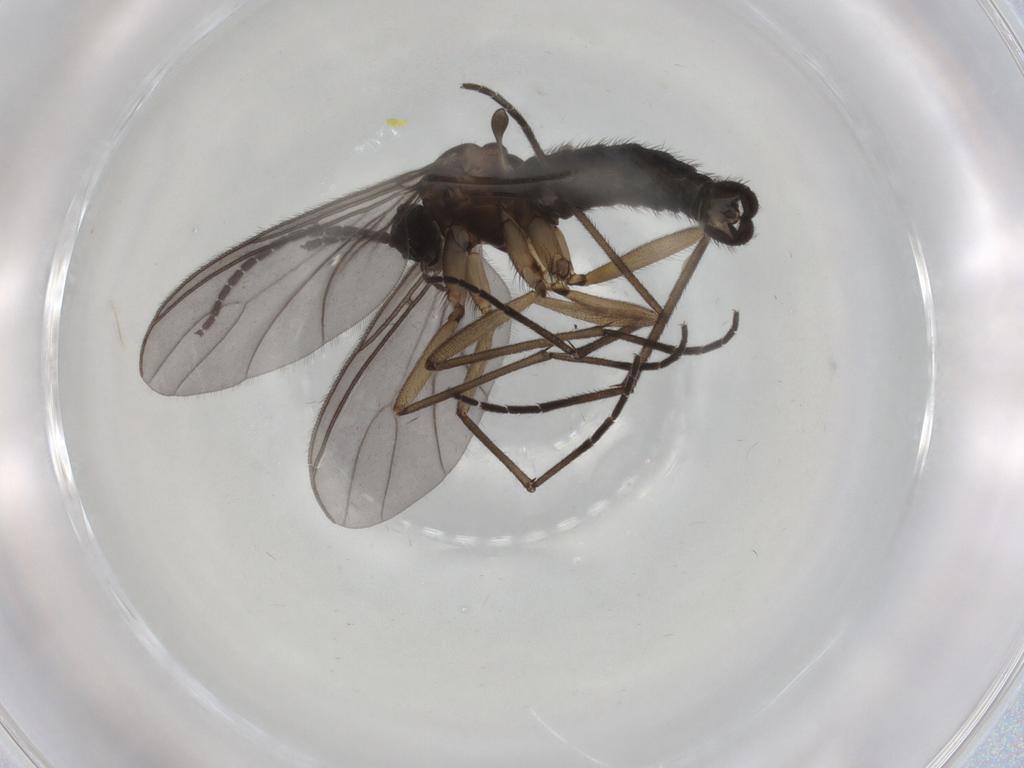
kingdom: Animalia
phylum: Arthropoda
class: Insecta
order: Diptera
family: Sciaridae
